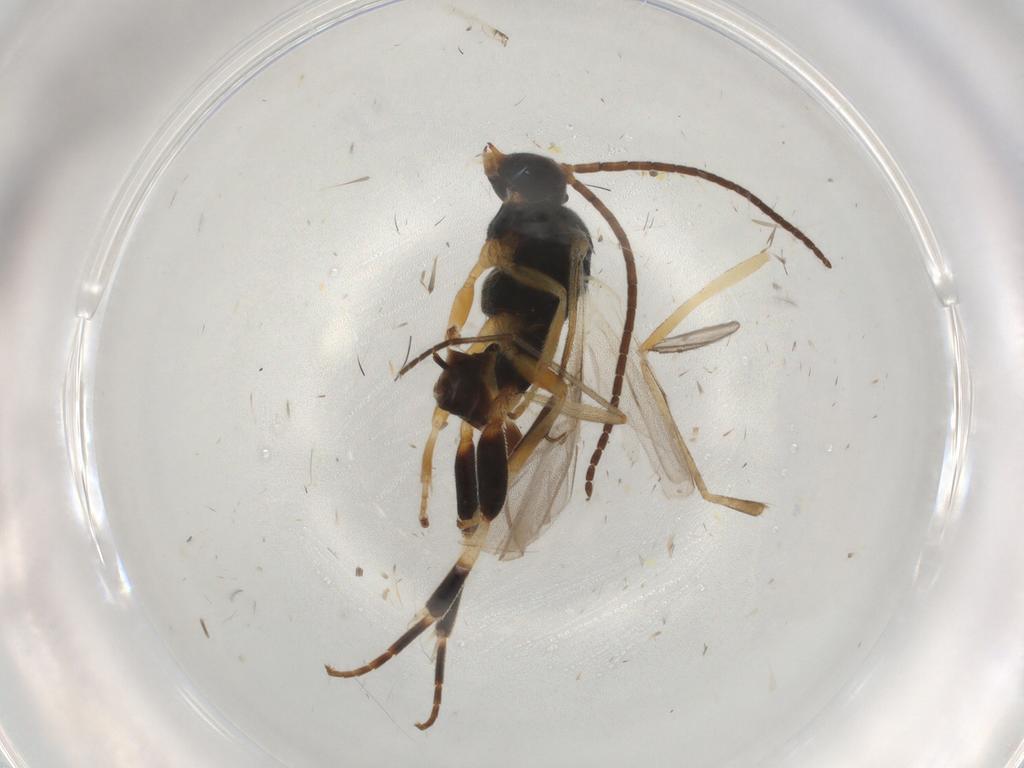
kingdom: Animalia
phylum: Arthropoda
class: Insecta
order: Hymenoptera
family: Braconidae
